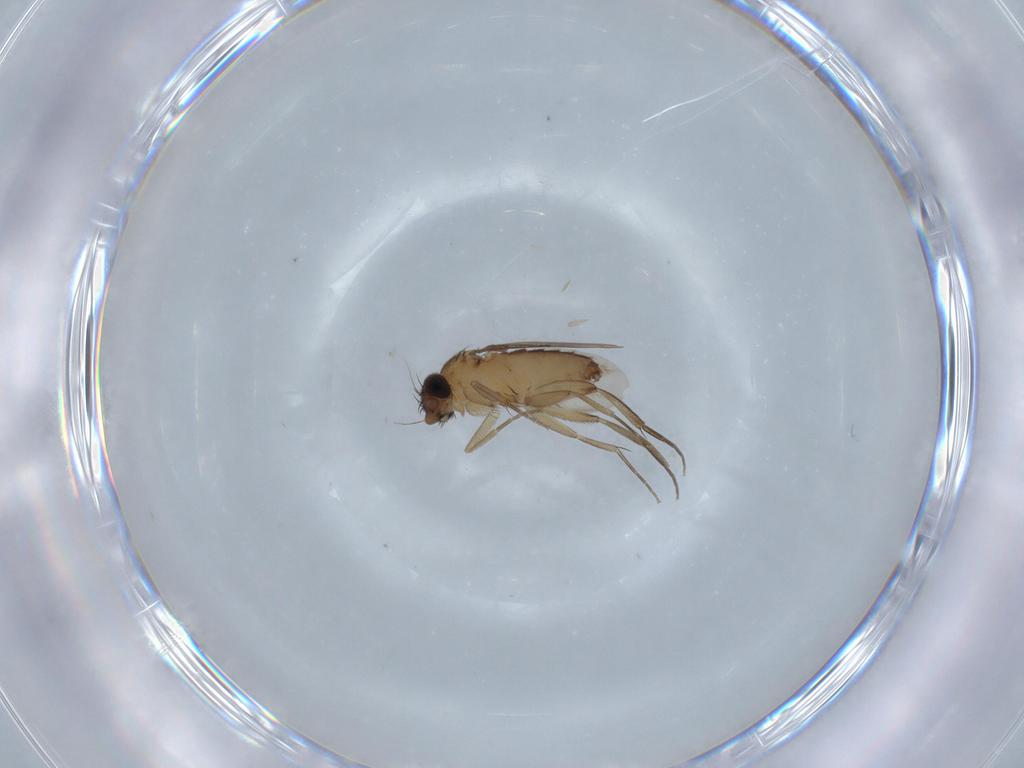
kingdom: Animalia
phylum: Arthropoda
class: Insecta
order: Diptera
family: Phoridae
